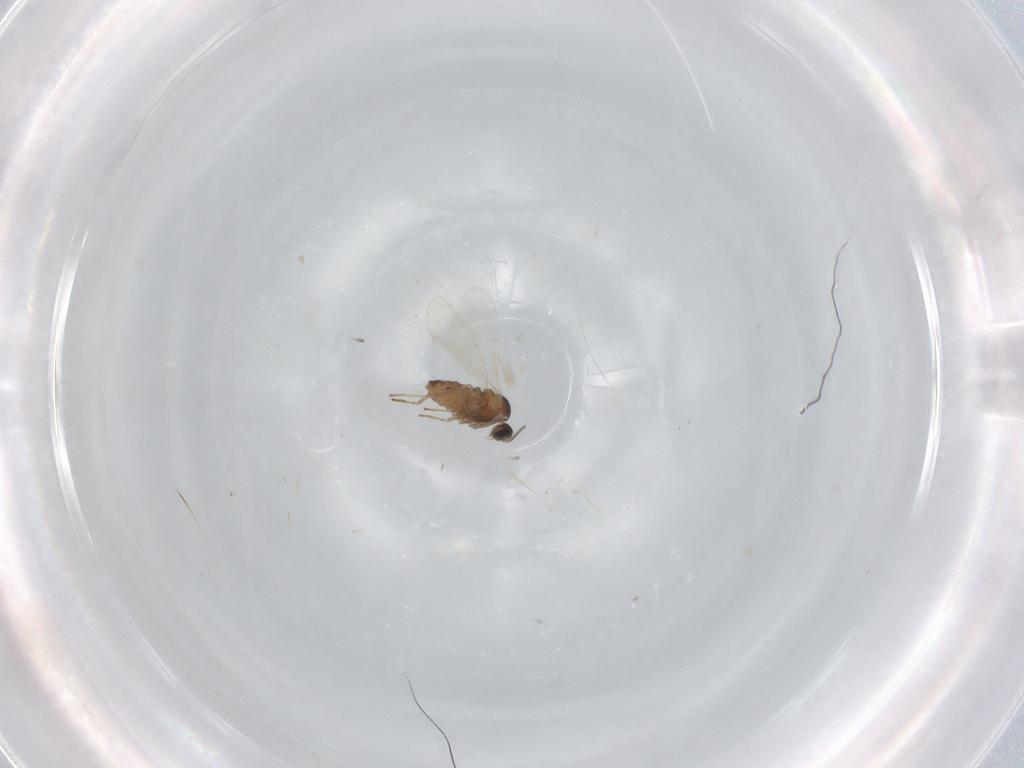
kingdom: Animalia
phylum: Arthropoda
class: Insecta
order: Diptera
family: Cecidomyiidae
